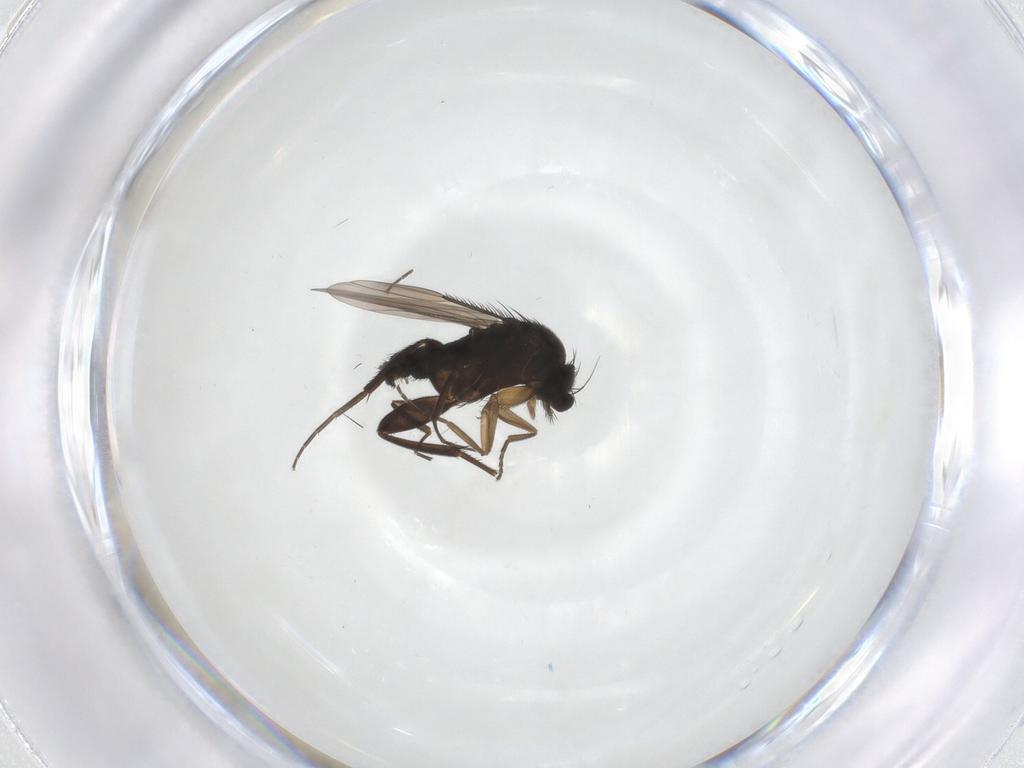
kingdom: Animalia
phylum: Arthropoda
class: Insecta
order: Diptera
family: Phoridae
